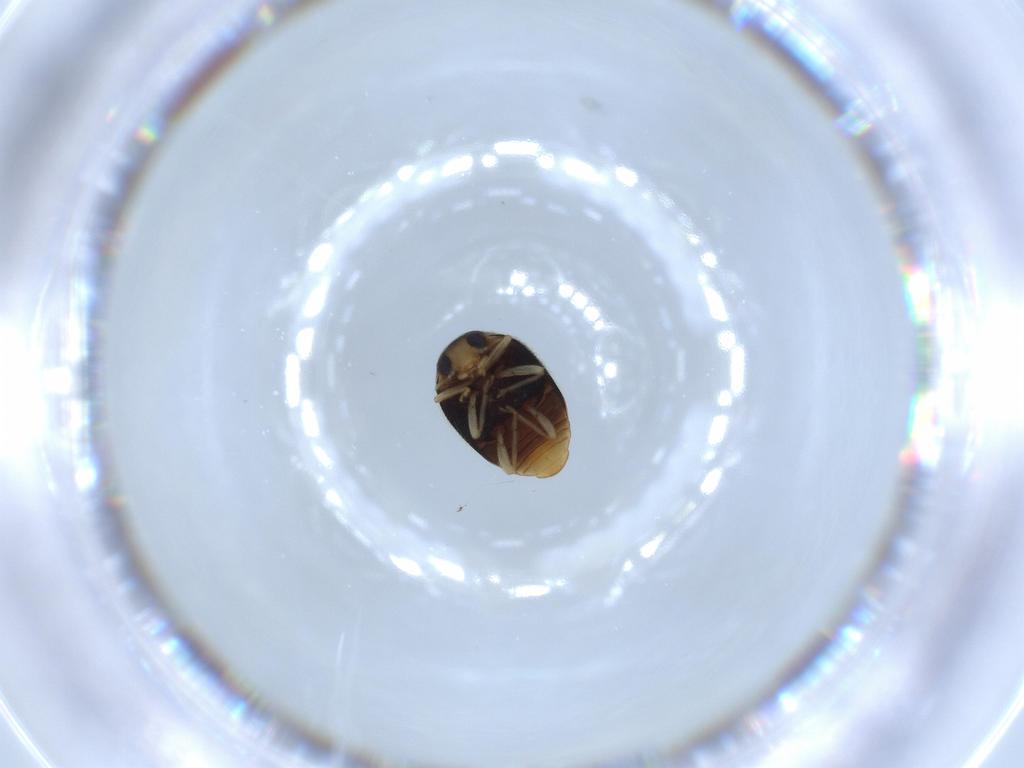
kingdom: Animalia
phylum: Arthropoda
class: Insecta
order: Coleoptera
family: Coccinellidae
